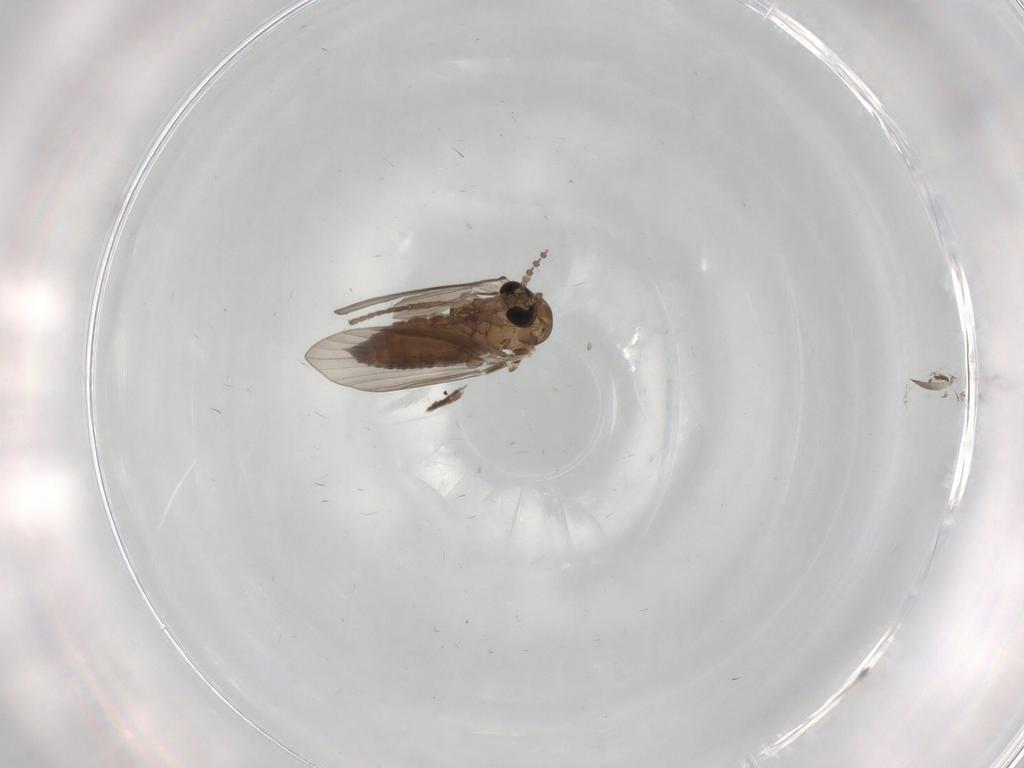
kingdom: Animalia
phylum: Arthropoda
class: Insecta
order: Diptera
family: Psychodidae
